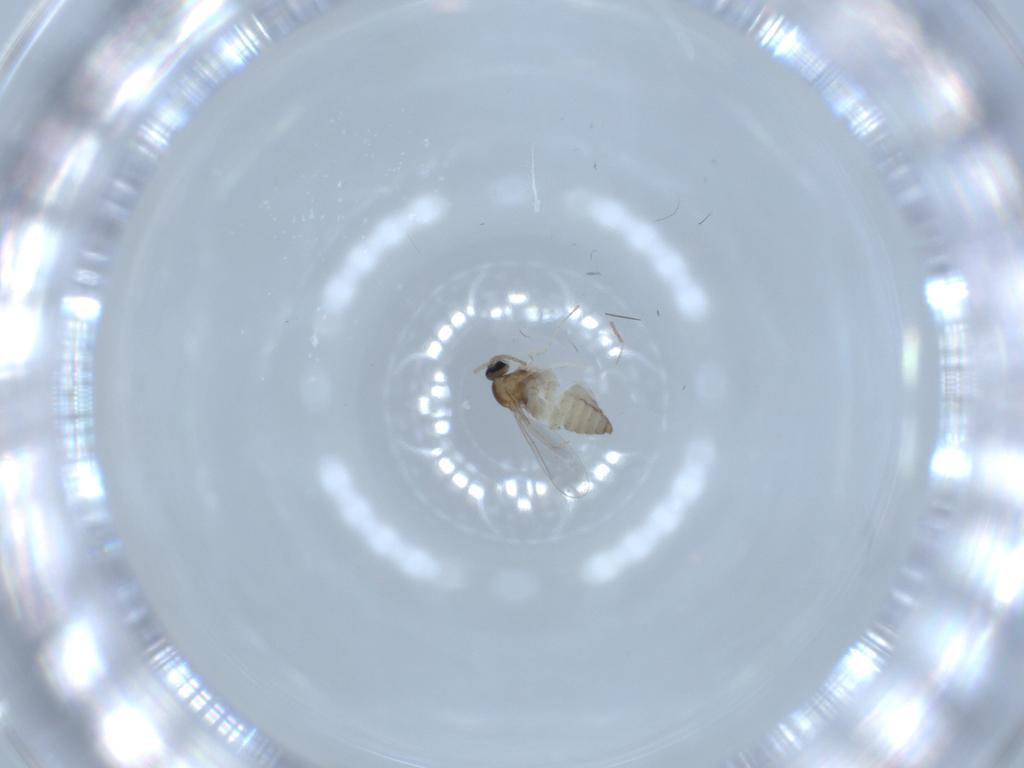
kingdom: Animalia
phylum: Arthropoda
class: Insecta
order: Diptera
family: Cecidomyiidae
